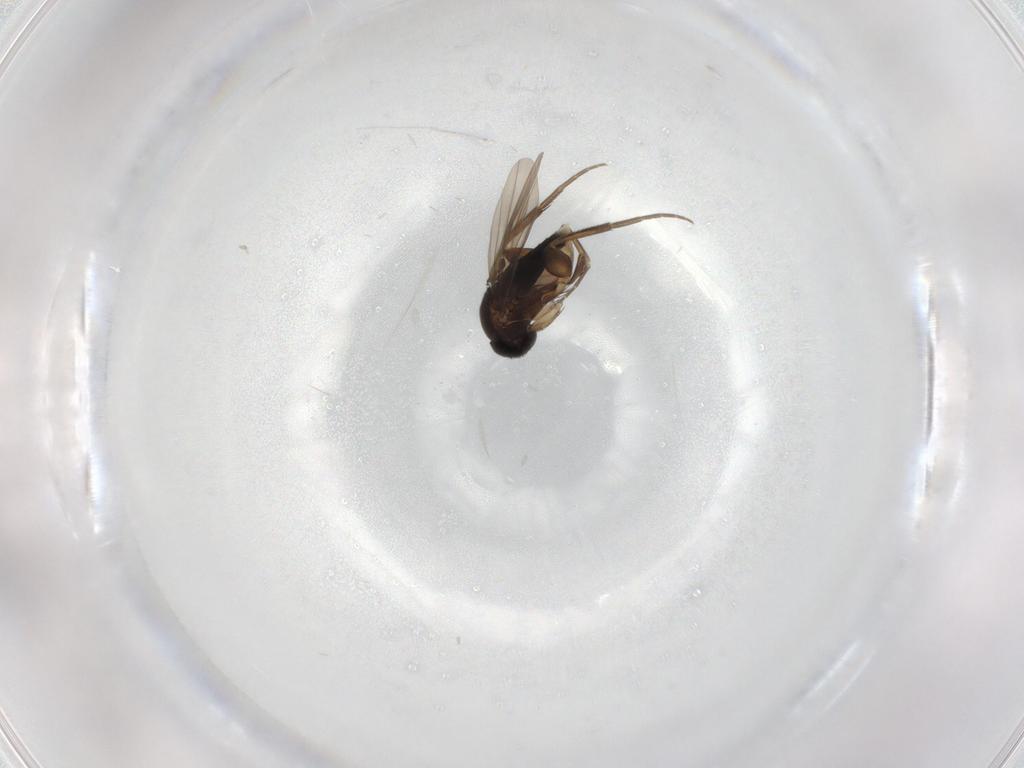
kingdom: Animalia
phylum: Arthropoda
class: Insecta
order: Diptera
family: Phoridae
